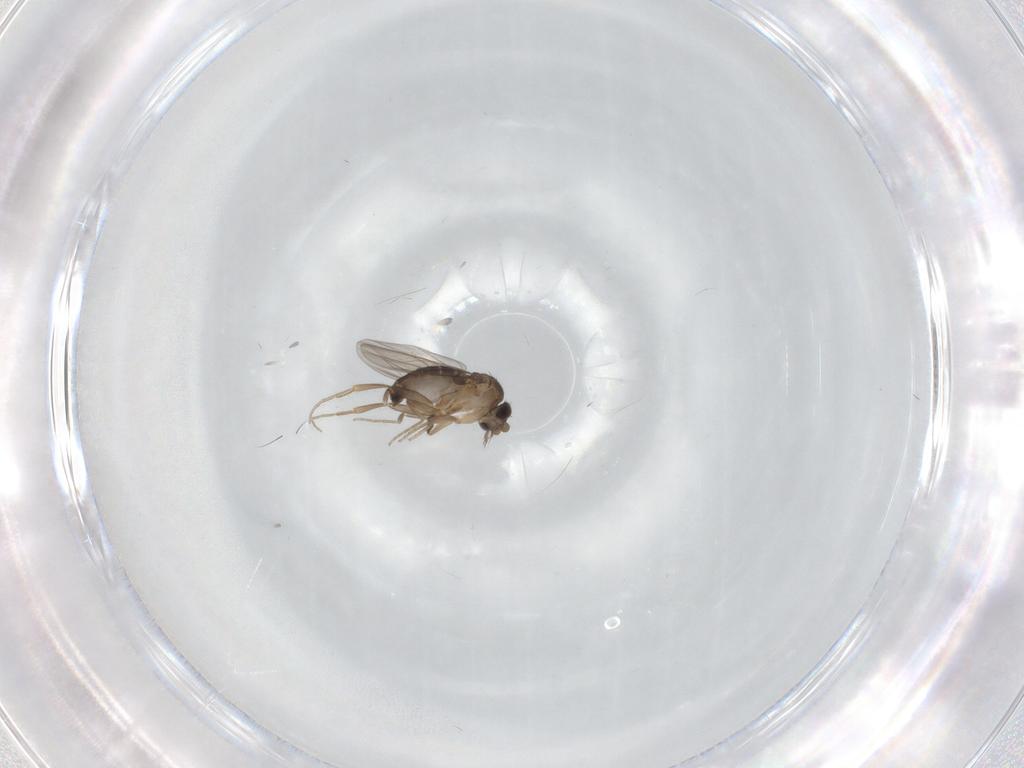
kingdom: Animalia
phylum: Arthropoda
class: Insecta
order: Diptera
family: Phoridae
